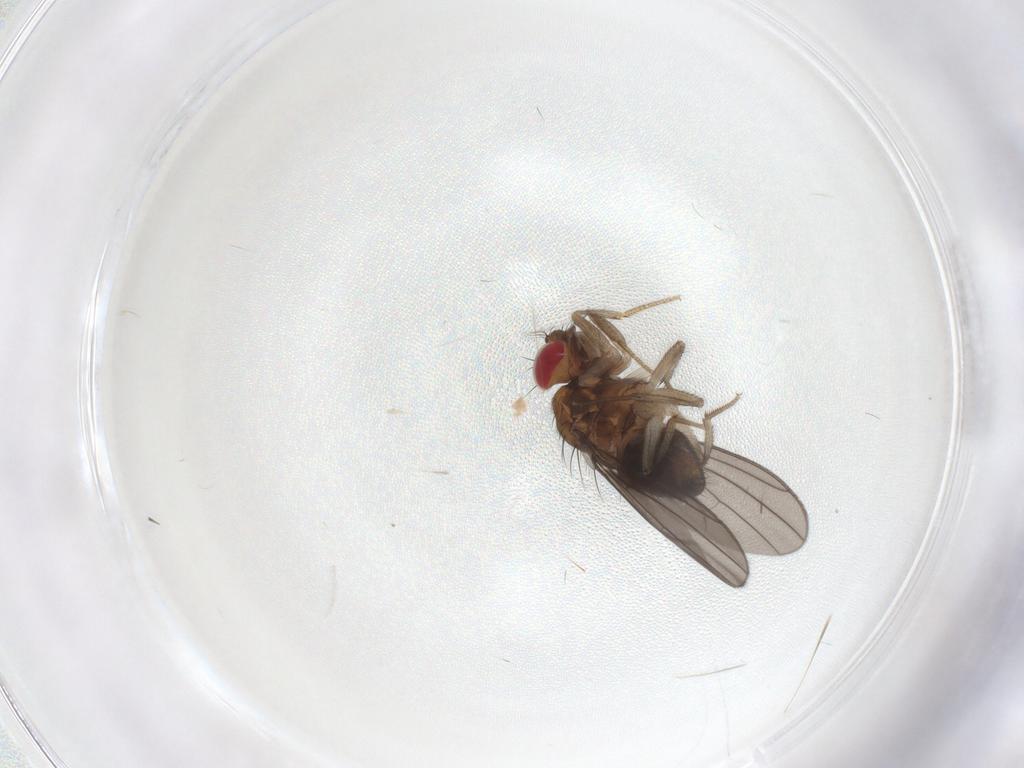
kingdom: Animalia
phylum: Arthropoda
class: Insecta
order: Diptera
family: Drosophilidae
